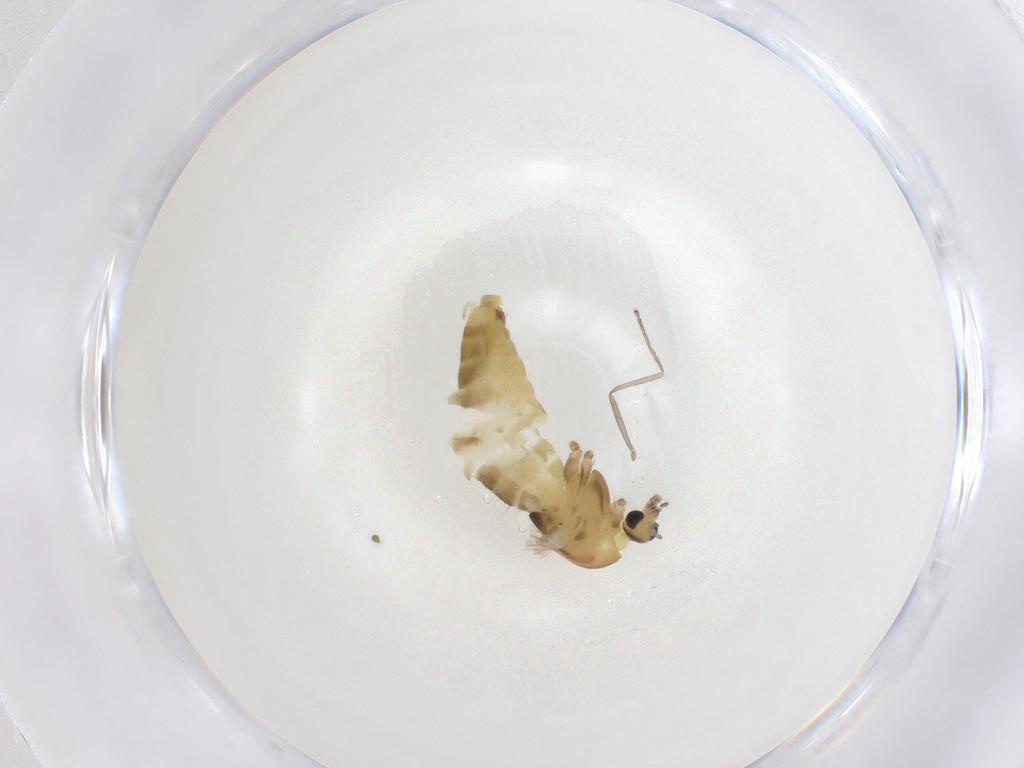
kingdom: Animalia
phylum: Arthropoda
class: Insecta
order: Diptera
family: Chironomidae
